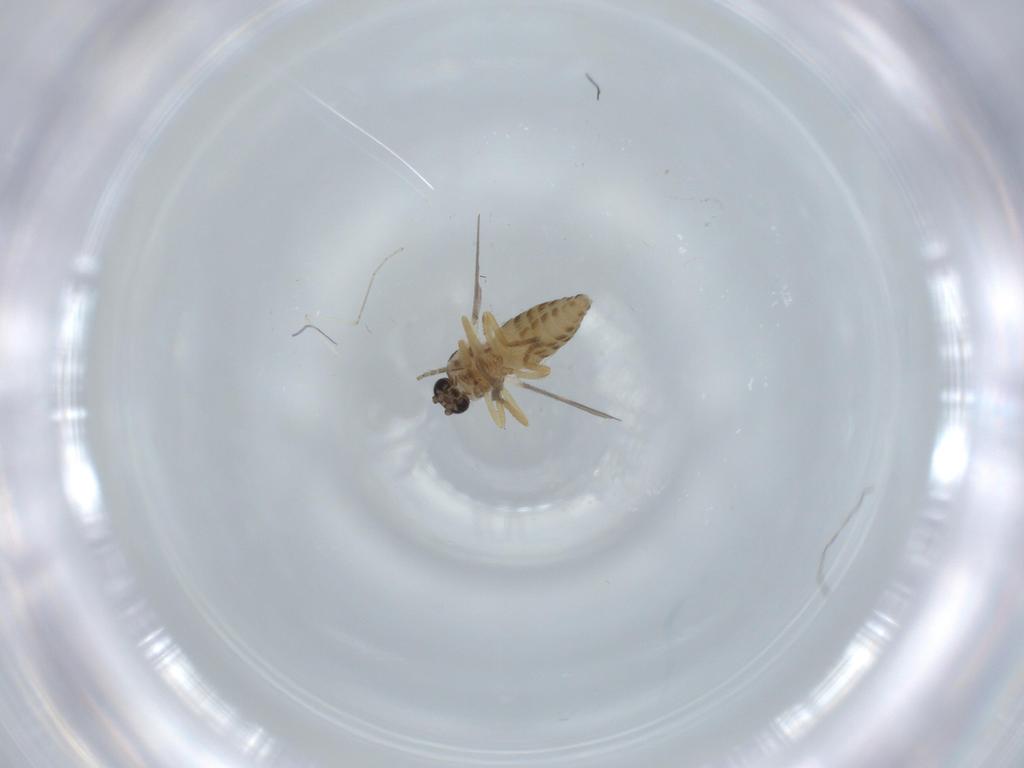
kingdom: Animalia
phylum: Arthropoda
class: Insecta
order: Diptera
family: Ceratopogonidae
